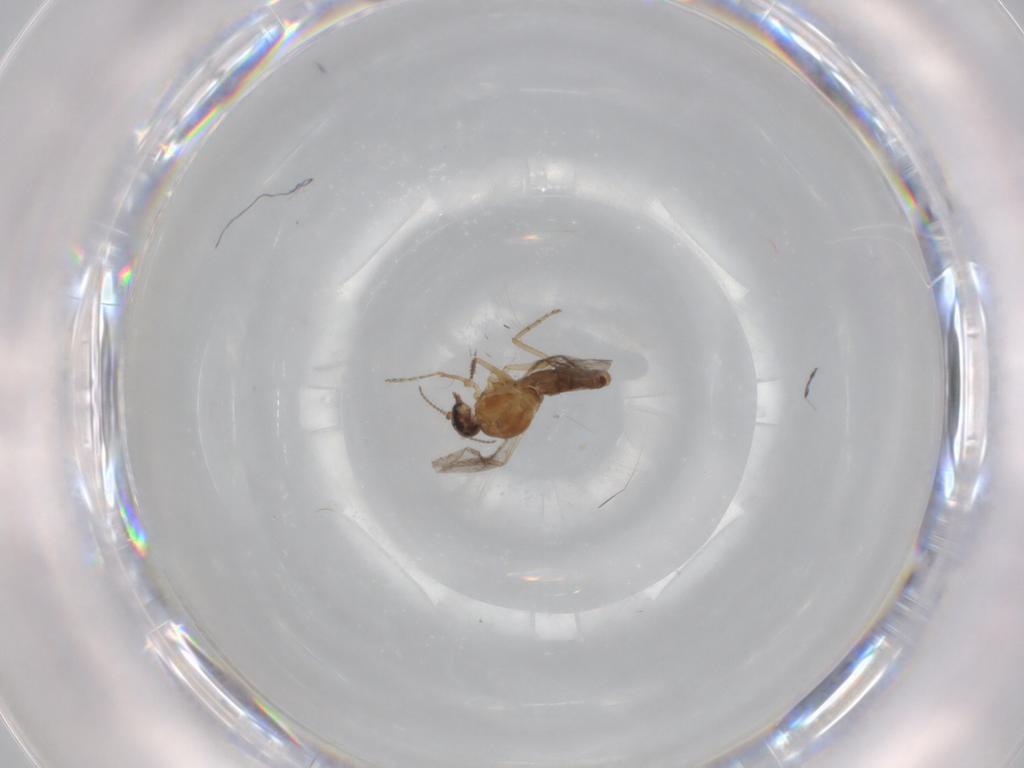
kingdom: Animalia
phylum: Arthropoda
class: Insecta
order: Diptera
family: Ceratopogonidae
